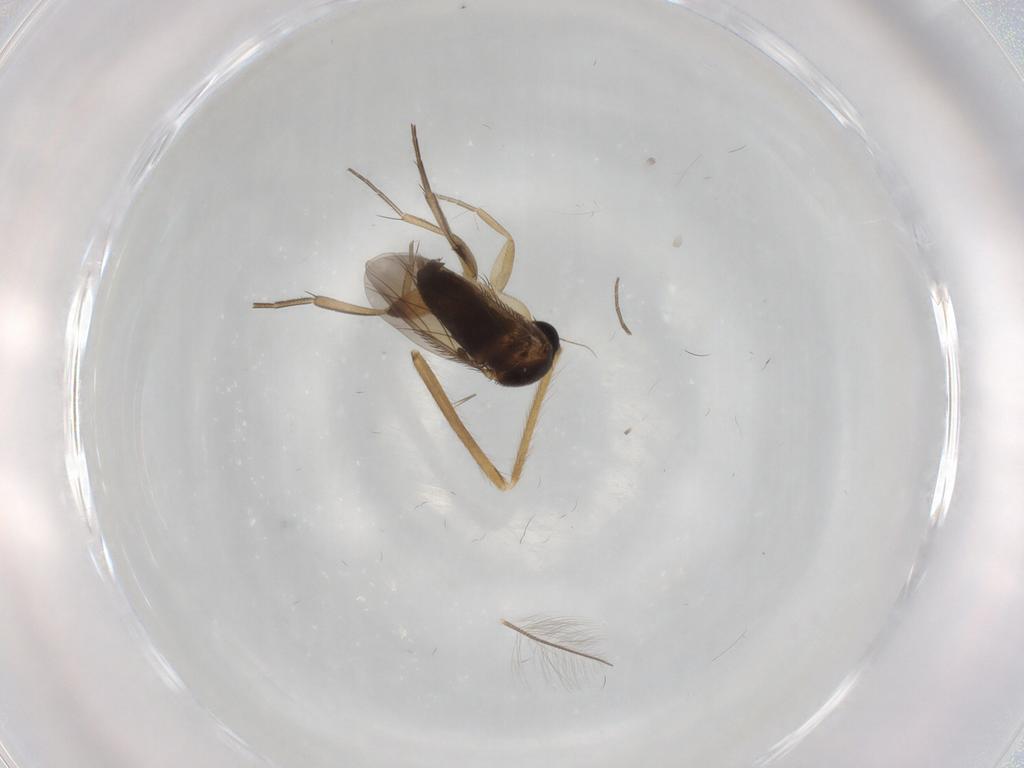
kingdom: Animalia
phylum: Arthropoda
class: Insecta
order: Diptera
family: Phoridae
